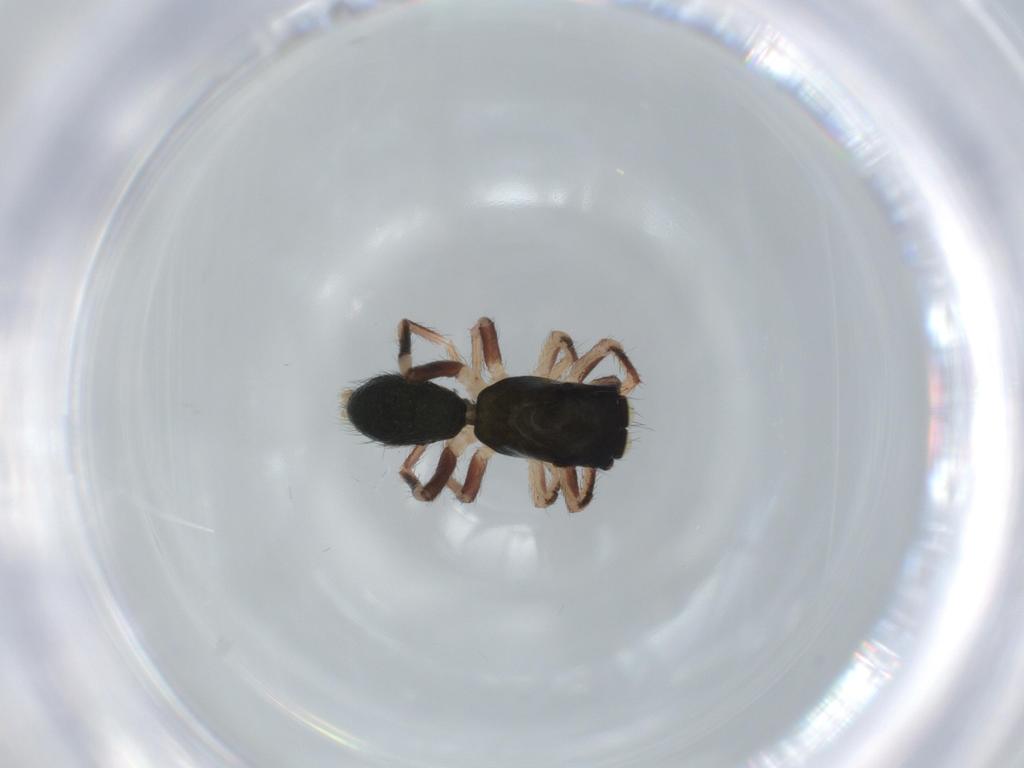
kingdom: Animalia
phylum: Arthropoda
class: Arachnida
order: Araneae
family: Salticidae
